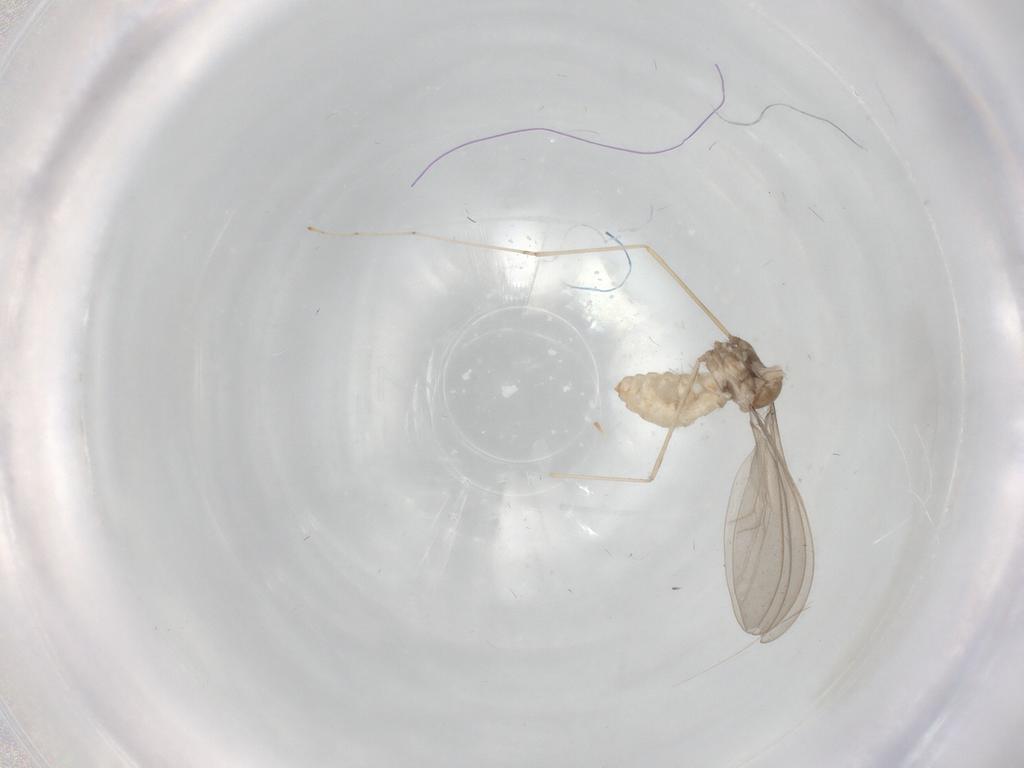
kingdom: Animalia
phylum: Arthropoda
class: Insecta
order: Diptera
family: Cecidomyiidae
